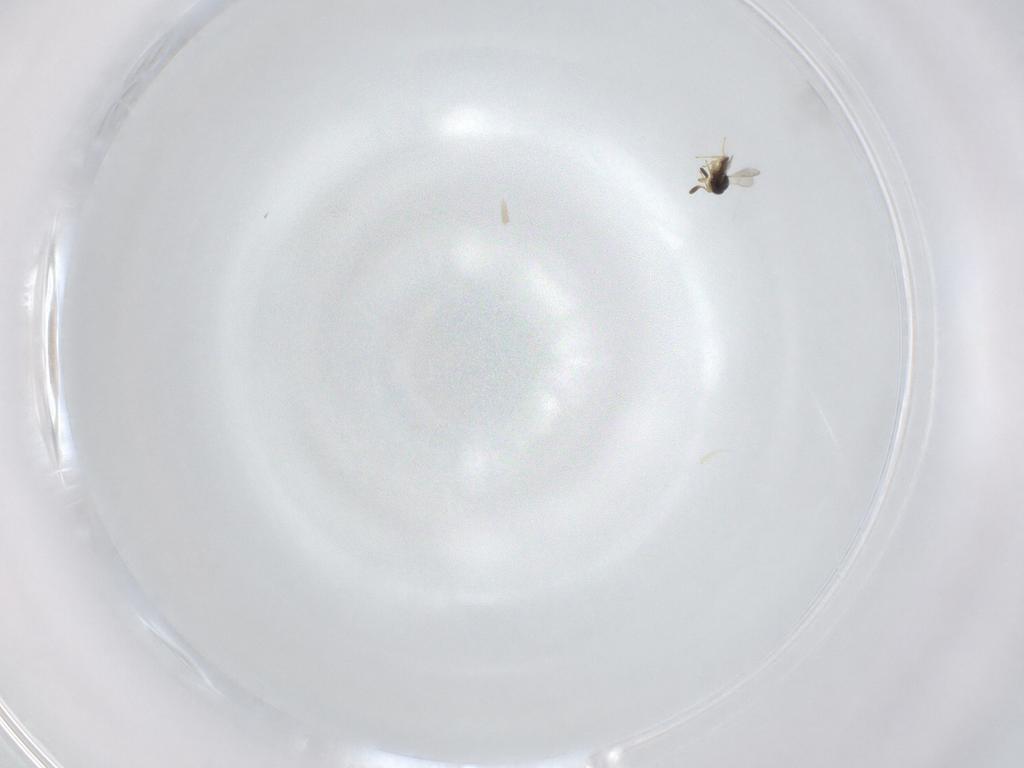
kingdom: Animalia
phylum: Arthropoda
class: Insecta
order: Hymenoptera
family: Scelionidae
